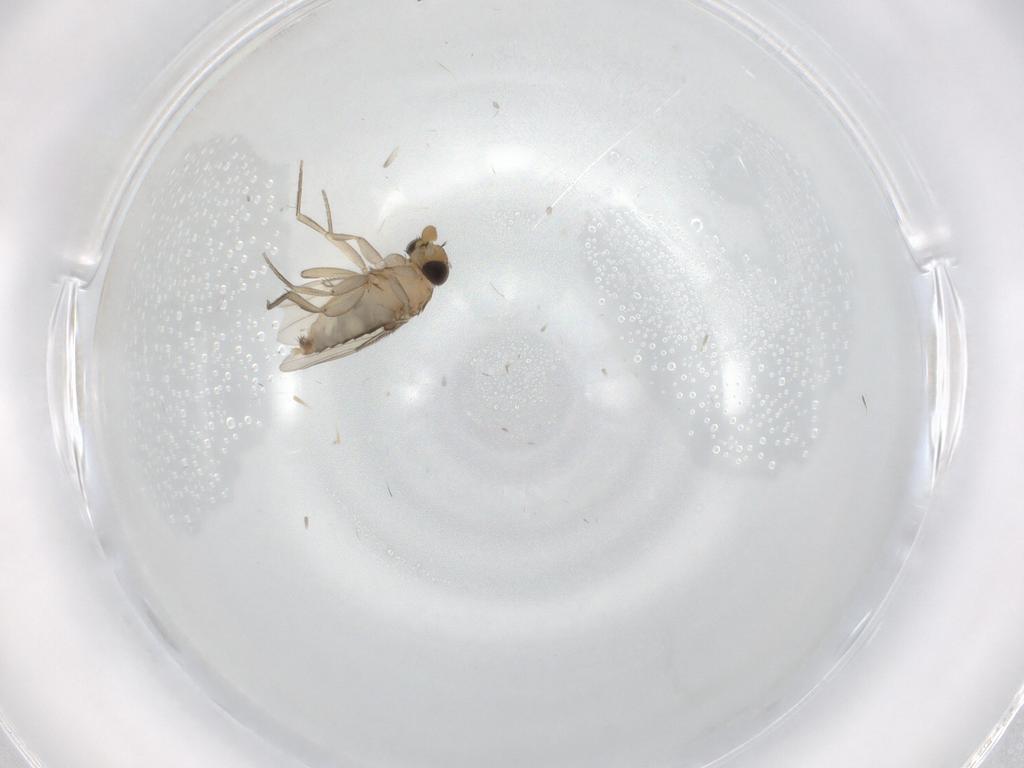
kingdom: Animalia
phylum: Arthropoda
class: Insecta
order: Diptera
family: Phoridae
